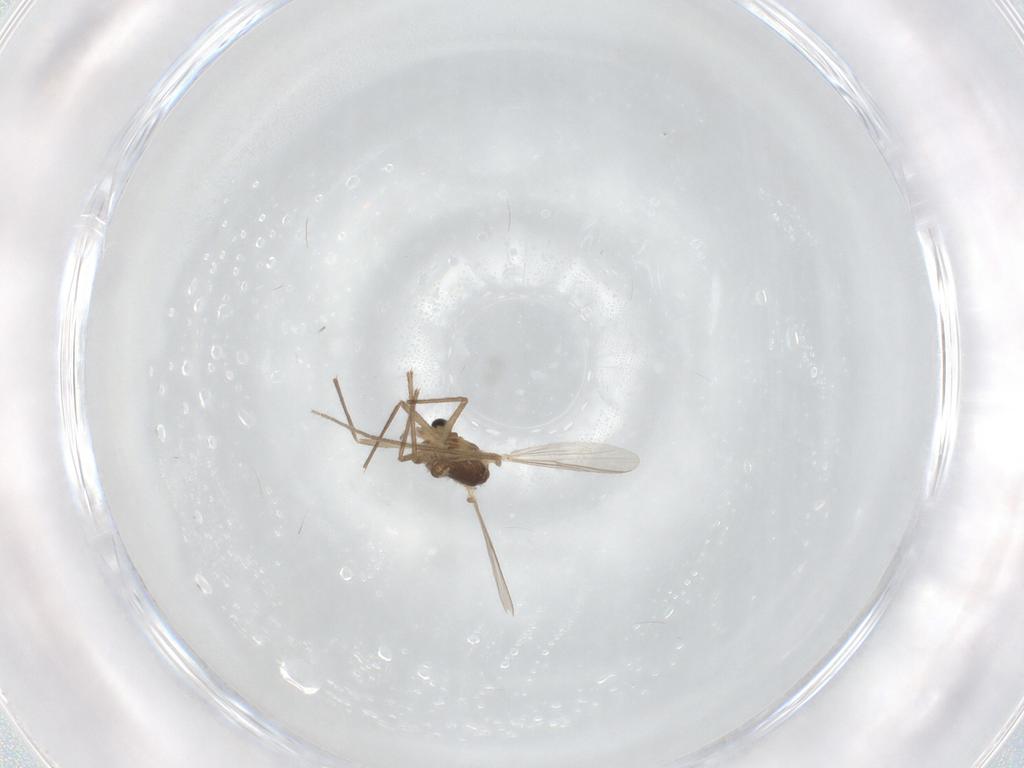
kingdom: Animalia
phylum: Arthropoda
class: Insecta
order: Diptera
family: Chironomidae
